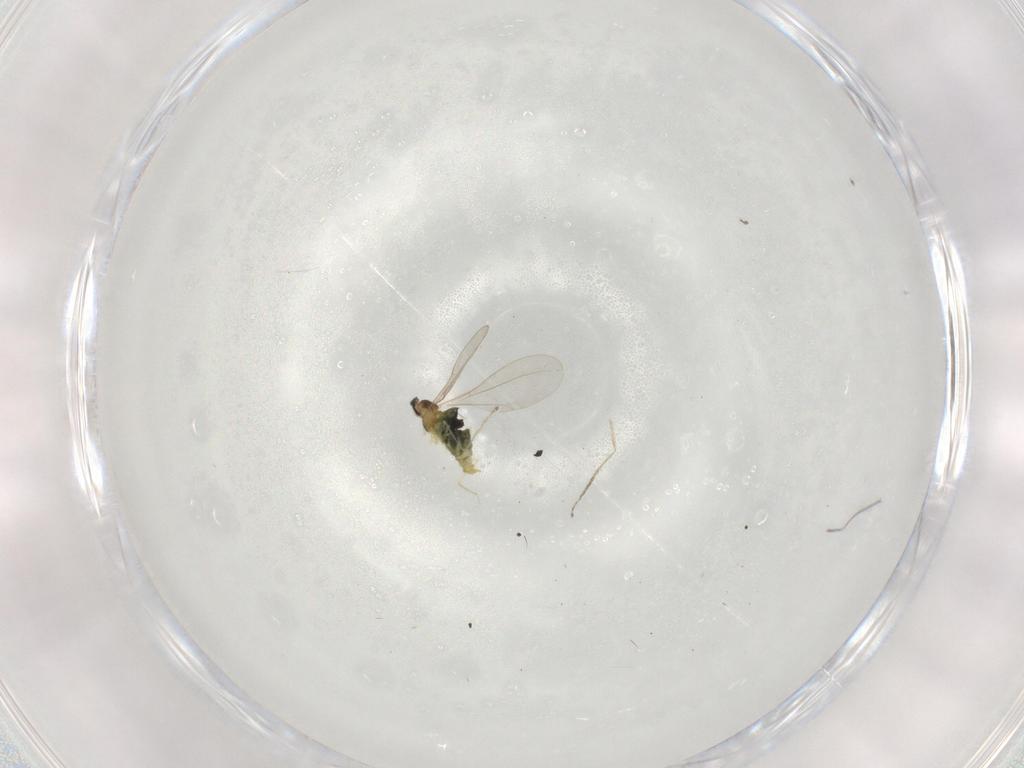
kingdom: Animalia
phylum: Arthropoda
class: Insecta
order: Diptera
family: Cecidomyiidae
